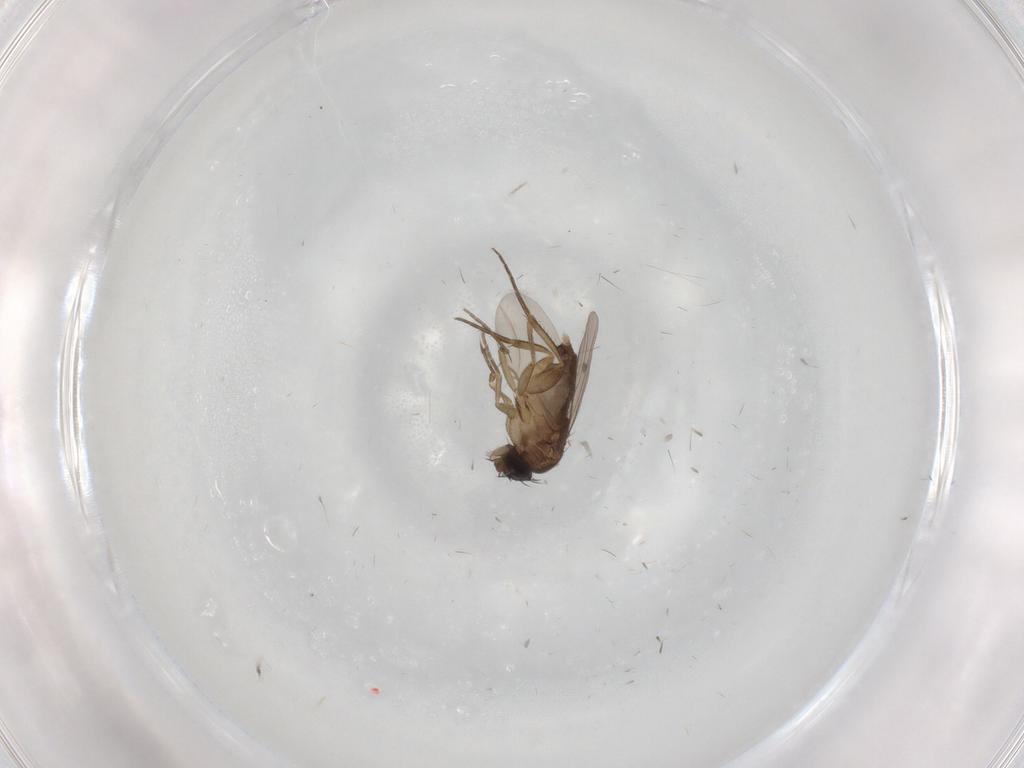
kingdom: Animalia
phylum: Arthropoda
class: Insecta
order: Diptera
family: Phoridae
